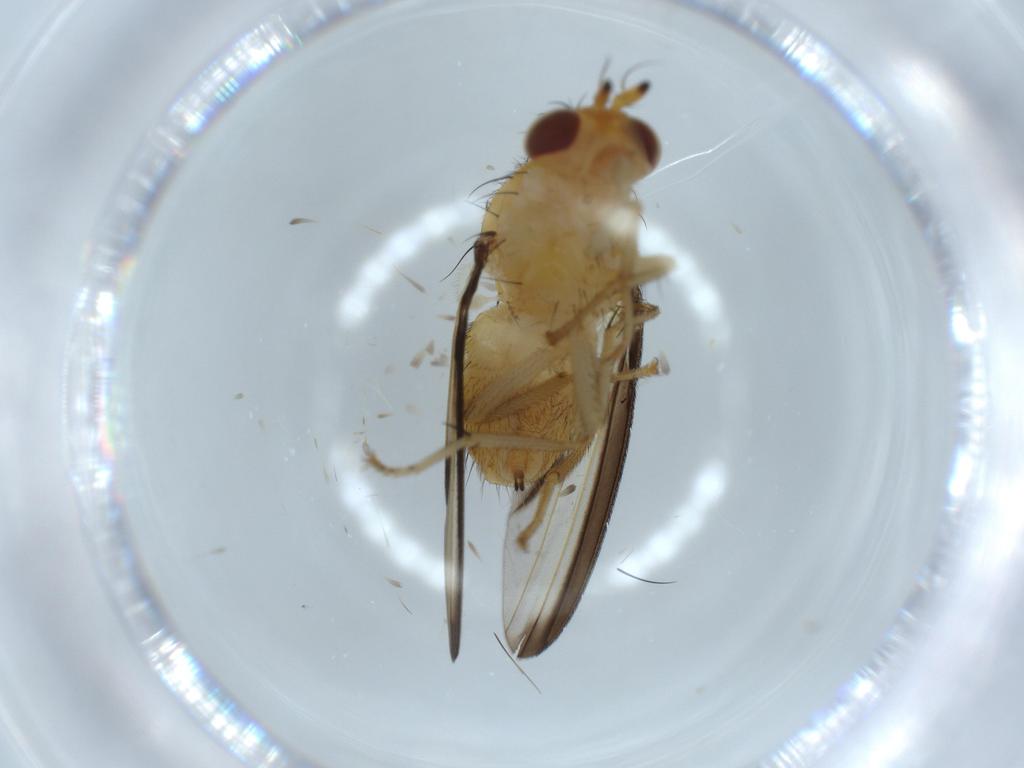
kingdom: Animalia
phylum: Arthropoda
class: Insecta
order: Diptera
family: Lauxaniidae
